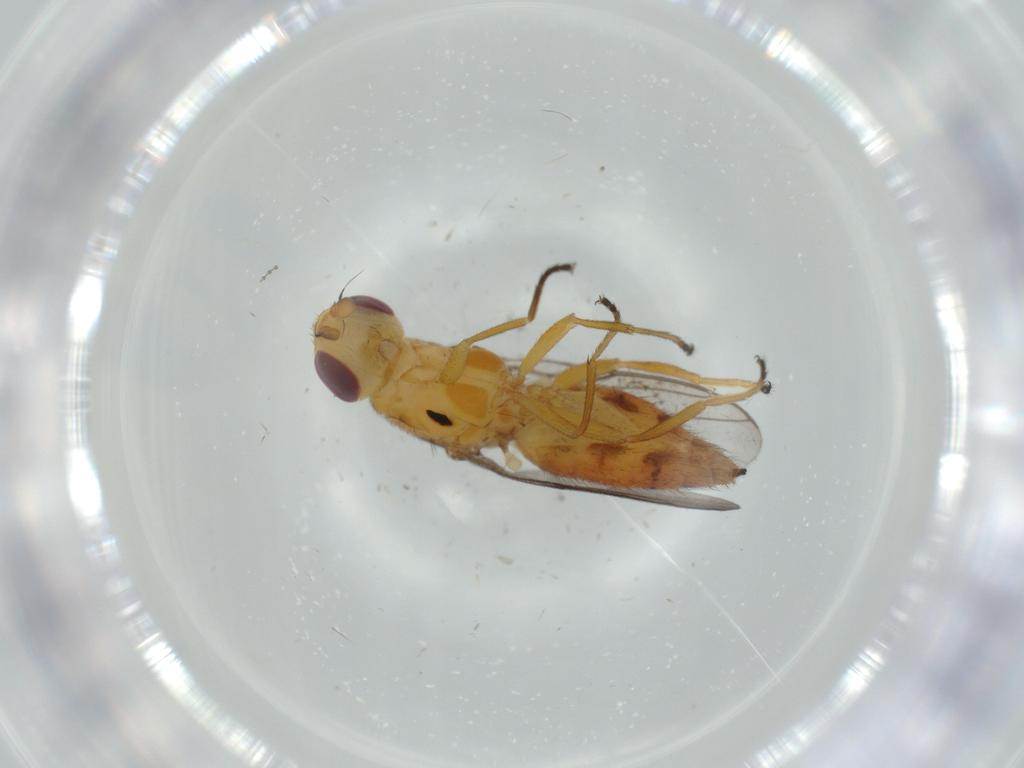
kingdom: Animalia
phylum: Arthropoda
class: Insecta
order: Diptera
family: Chloropidae
